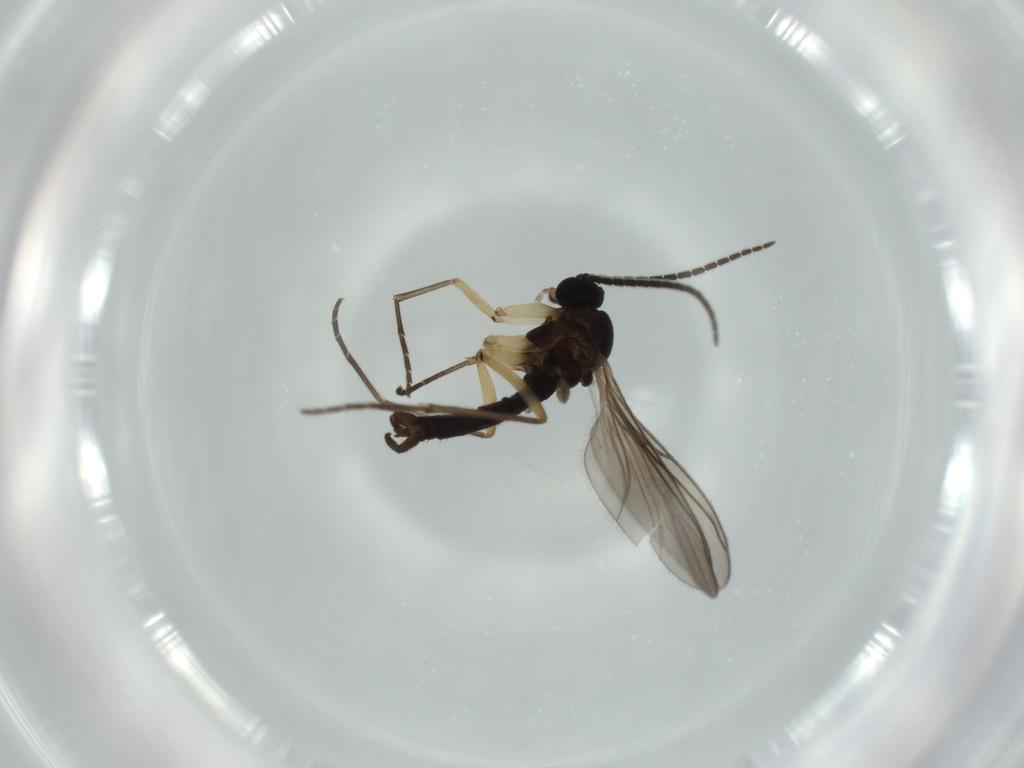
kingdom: Animalia
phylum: Arthropoda
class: Insecta
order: Diptera
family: Sciaridae
